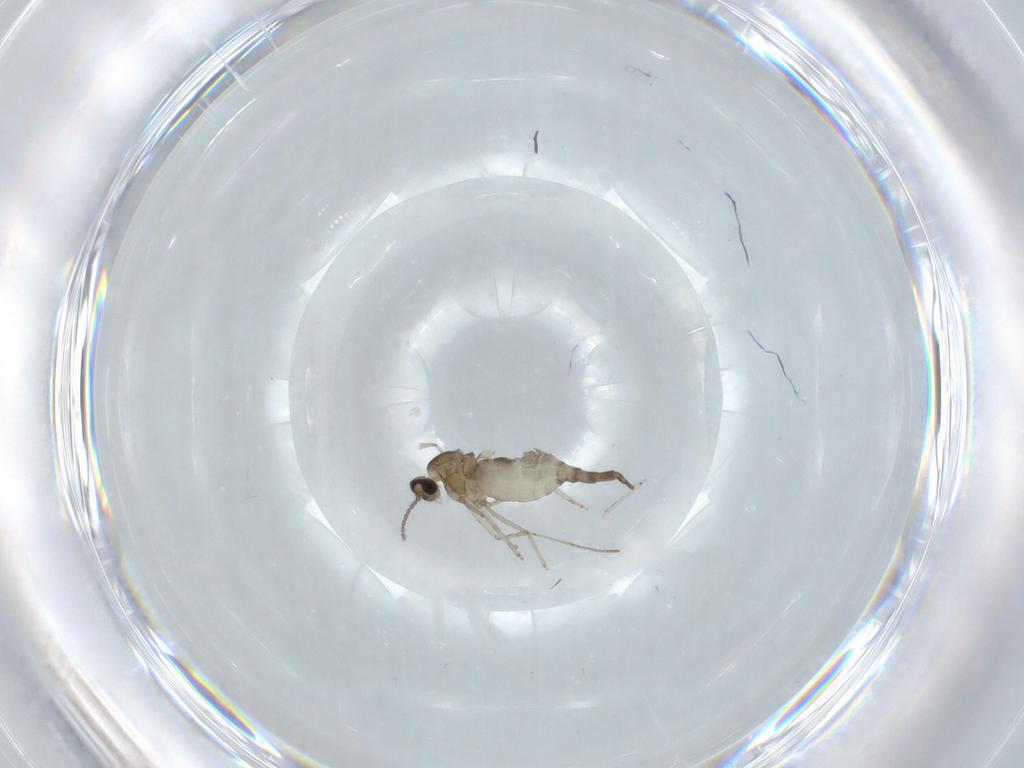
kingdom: Animalia
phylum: Arthropoda
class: Insecta
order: Diptera
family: Cecidomyiidae
